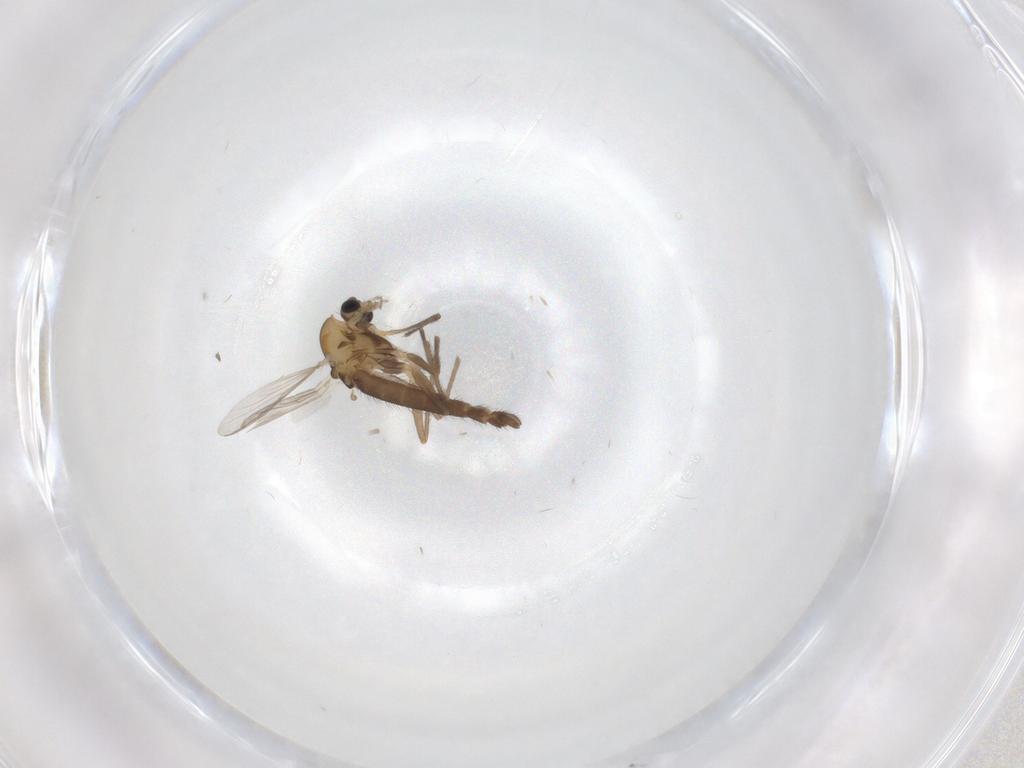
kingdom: Animalia
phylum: Arthropoda
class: Insecta
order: Diptera
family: Chironomidae
